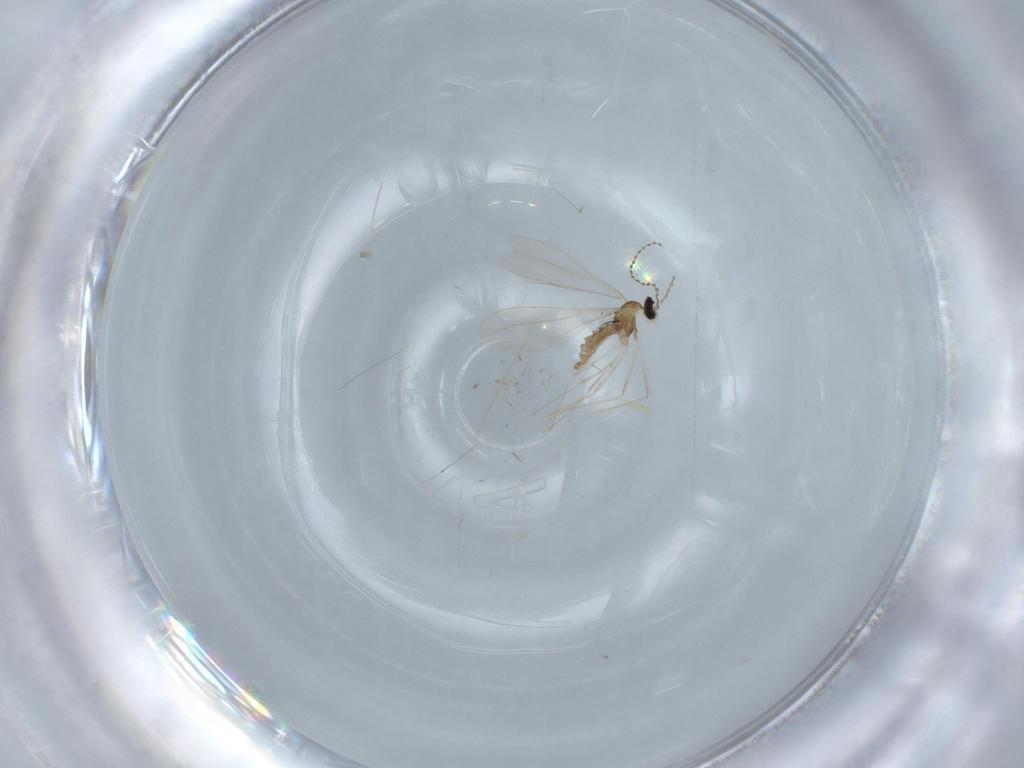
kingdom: Animalia
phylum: Arthropoda
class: Insecta
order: Diptera
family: Cecidomyiidae
